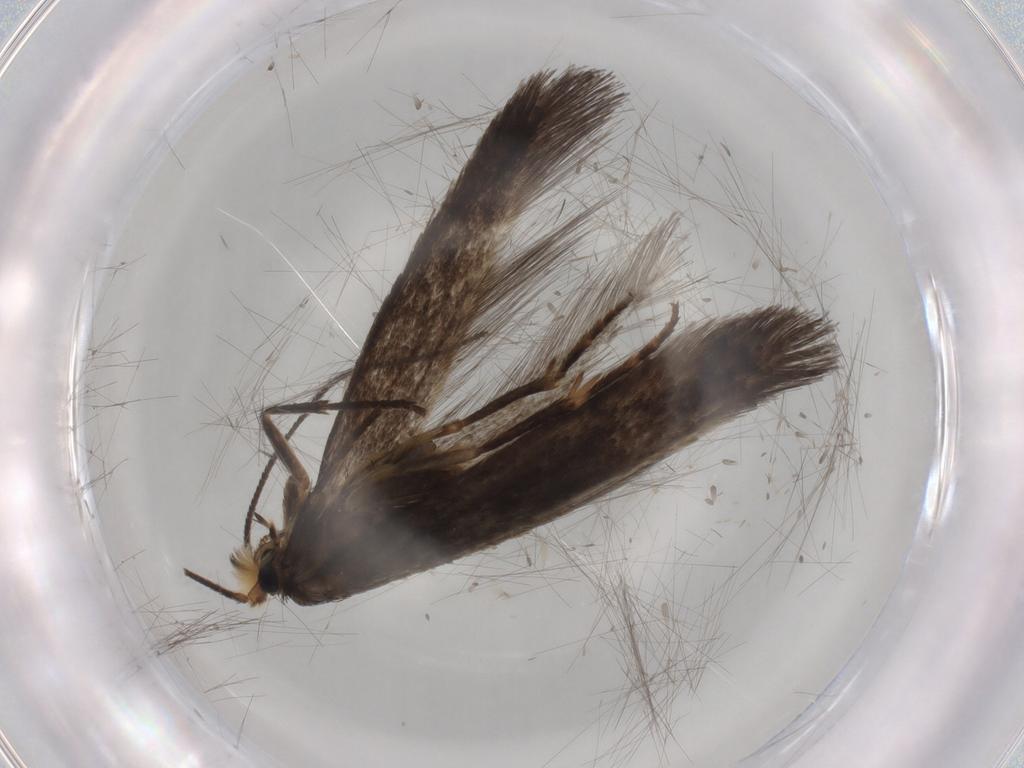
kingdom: Animalia
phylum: Arthropoda
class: Insecta
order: Lepidoptera
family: Nepticulidae
